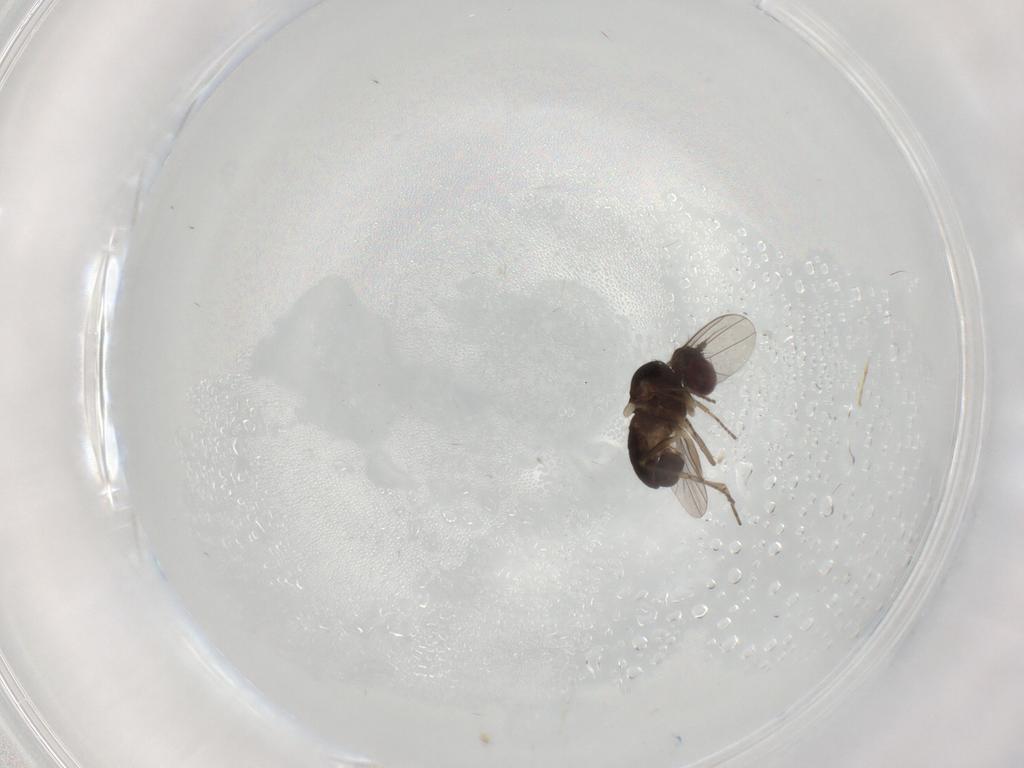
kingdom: Animalia
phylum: Arthropoda
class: Insecta
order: Diptera
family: Dolichopodidae
